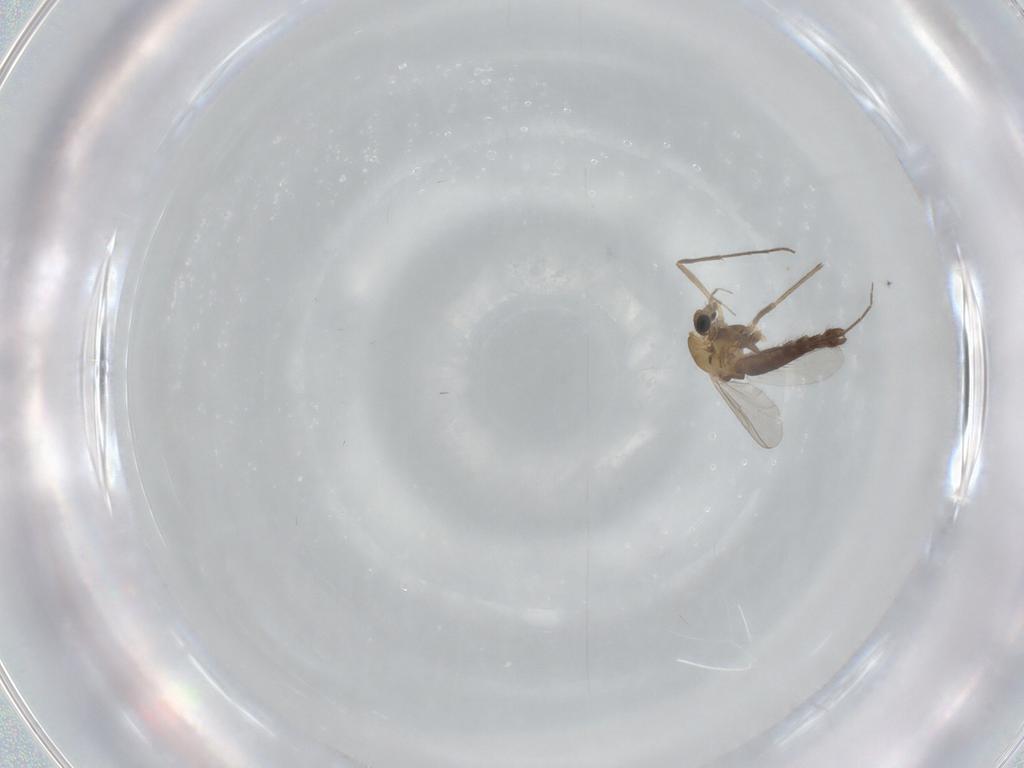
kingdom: Animalia
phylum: Arthropoda
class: Insecta
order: Diptera
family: Chironomidae
